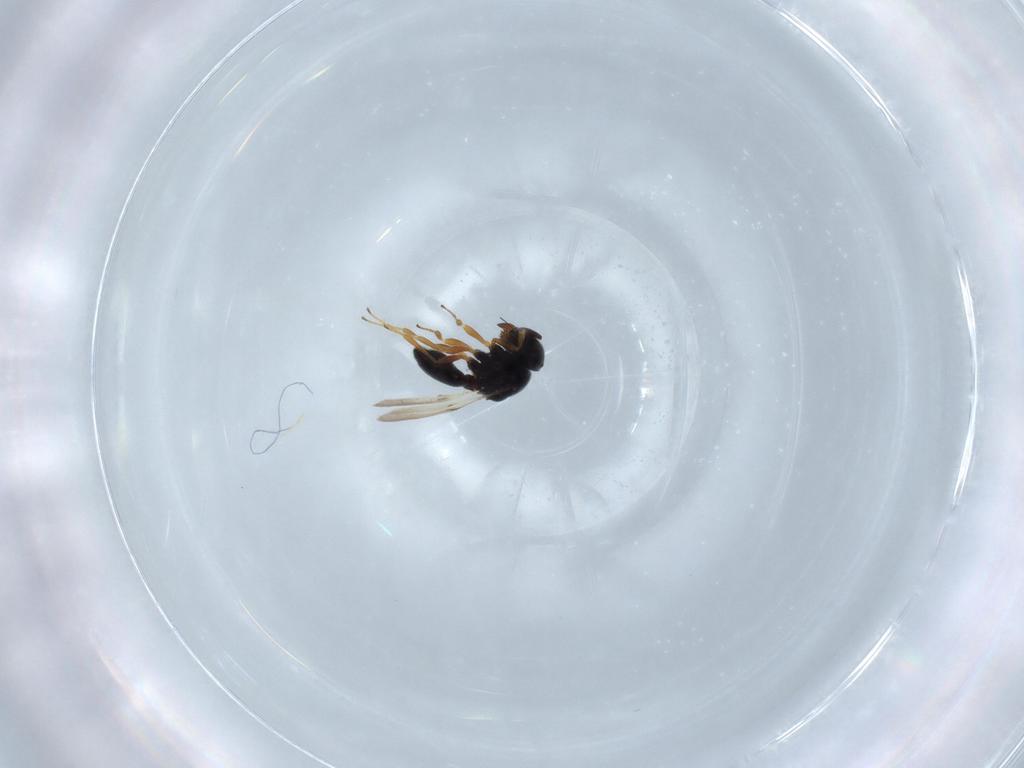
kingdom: Animalia
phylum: Arthropoda
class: Insecta
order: Hymenoptera
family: Scelionidae
